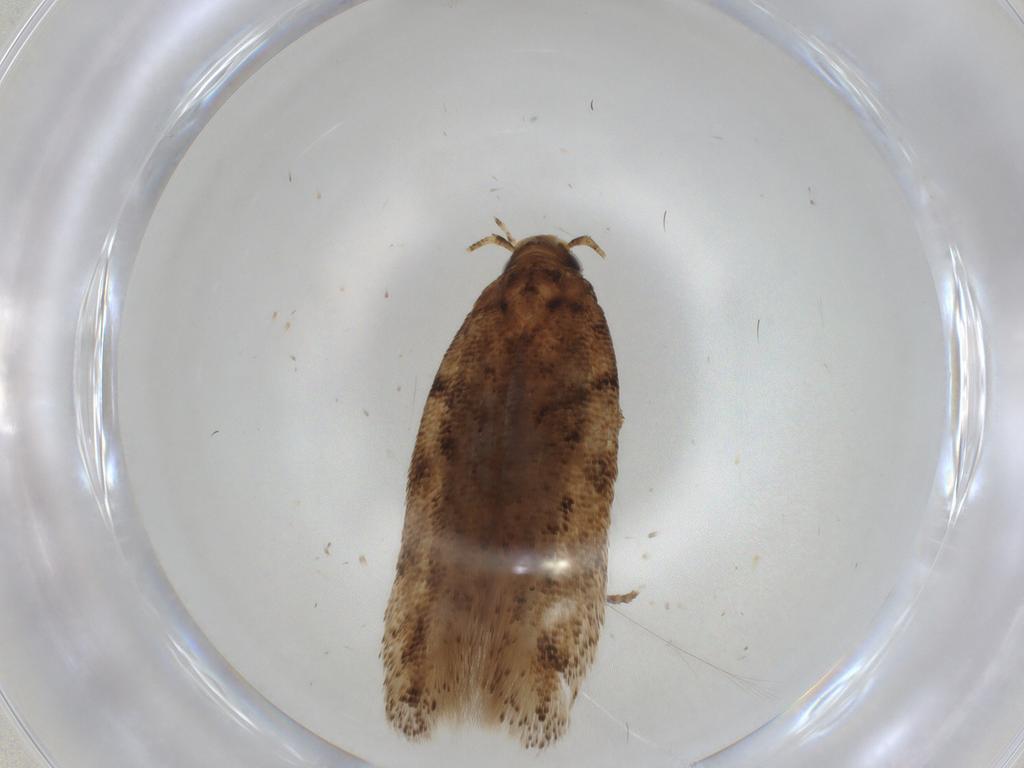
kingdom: Animalia
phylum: Arthropoda
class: Insecta
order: Lepidoptera
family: Gelechiidae
